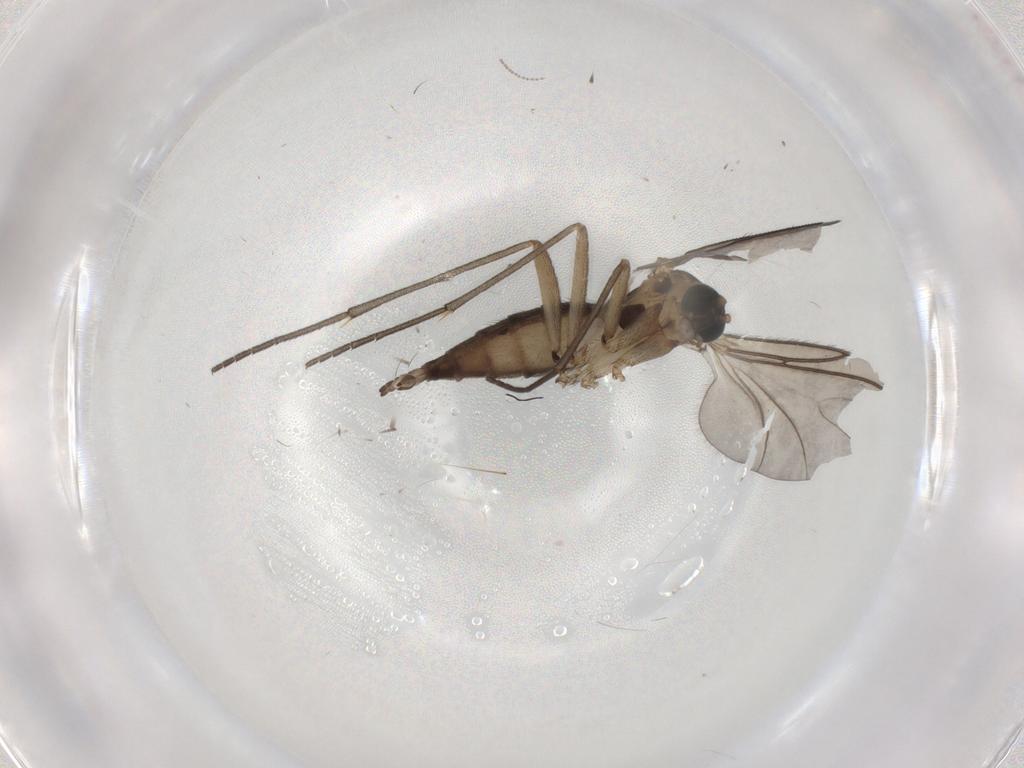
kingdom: Animalia
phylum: Arthropoda
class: Insecta
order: Diptera
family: Sciaridae
